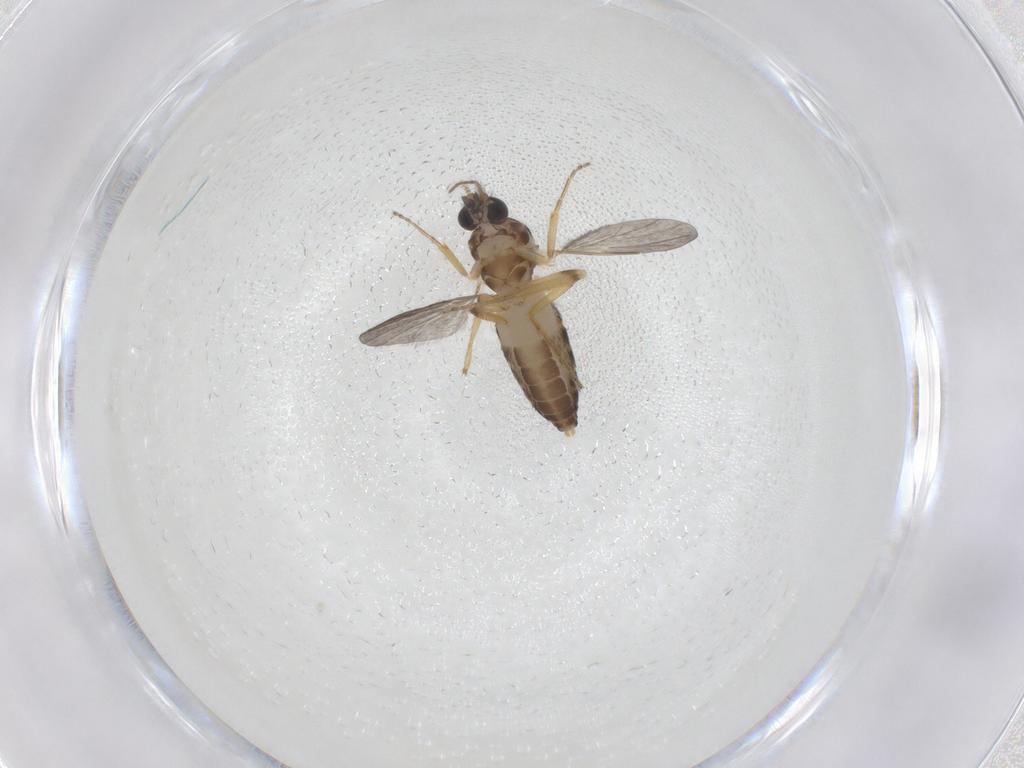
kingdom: Animalia
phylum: Arthropoda
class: Insecta
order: Diptera
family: Ceratopogonidae
